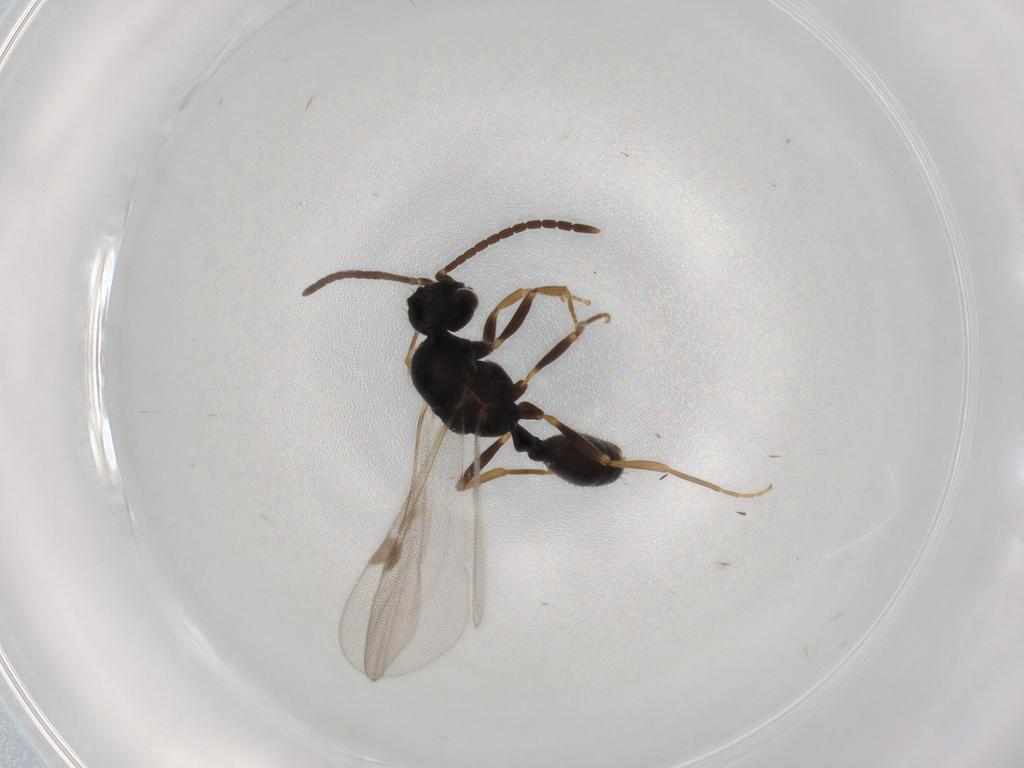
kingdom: Animalia
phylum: Arthropoda
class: Insecta
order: Hymenoptera
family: Formicidae
